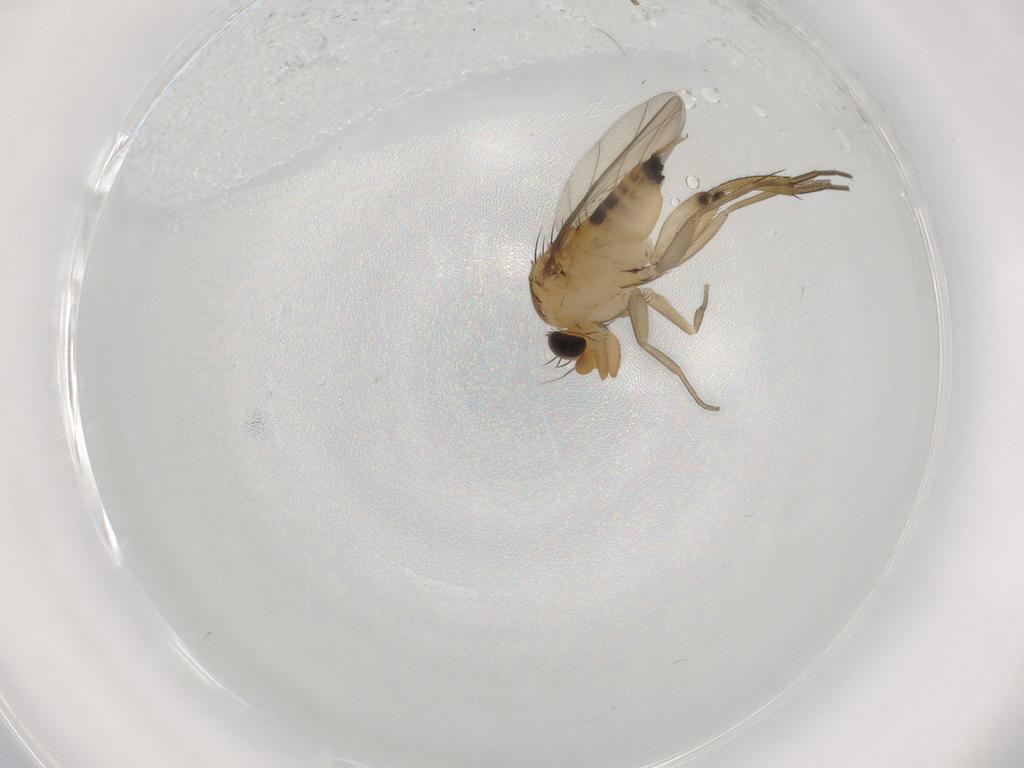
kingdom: Animalia
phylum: Arthropoda
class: Insecta
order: Diptera
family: Phoridae
